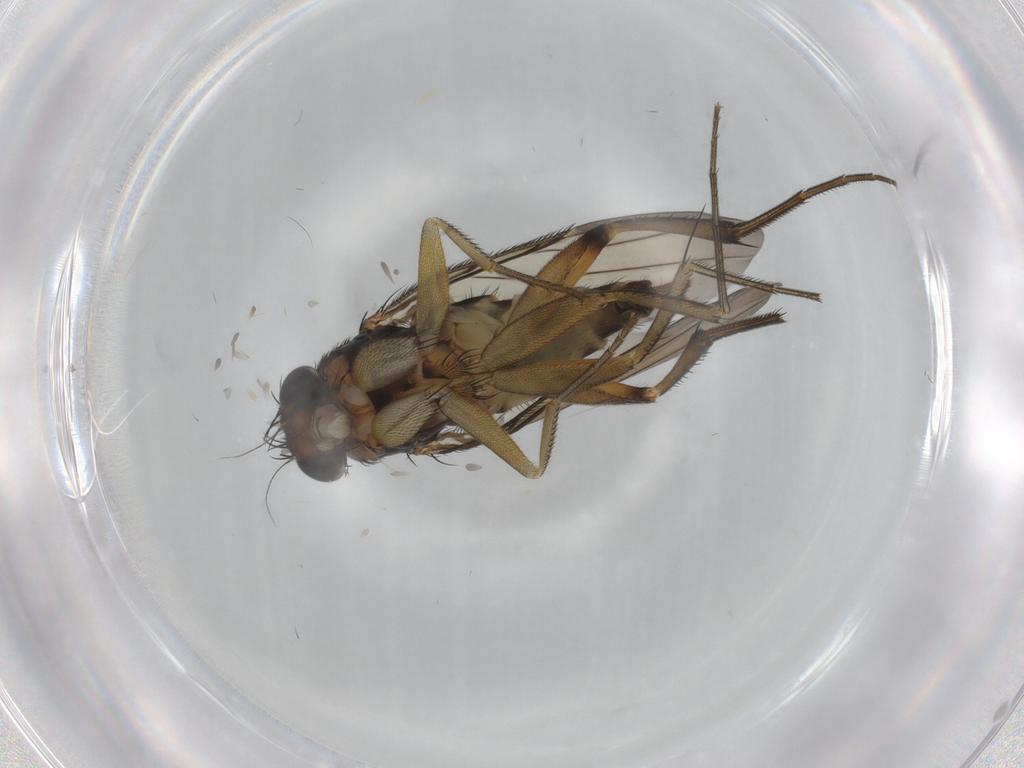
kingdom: Animalia
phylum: Arthropoda
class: Insecta
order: Diptera
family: Phoridae
